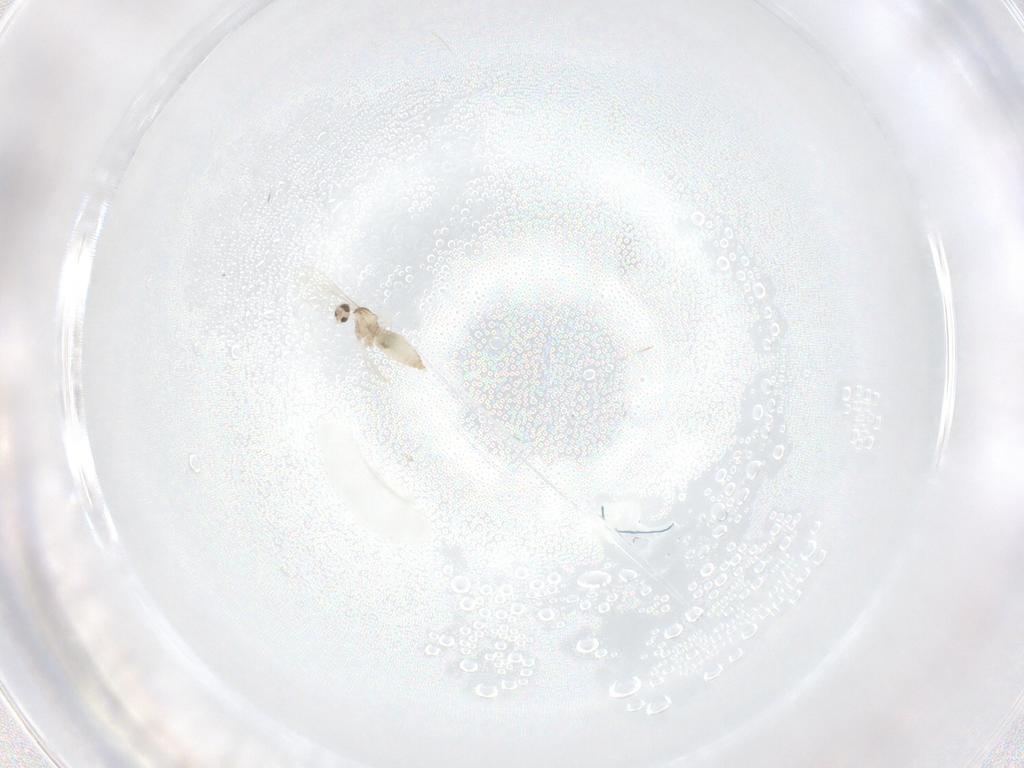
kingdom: Animalia
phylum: Arthropoda
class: Insecta
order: Diptera
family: Cecidomyiidae
